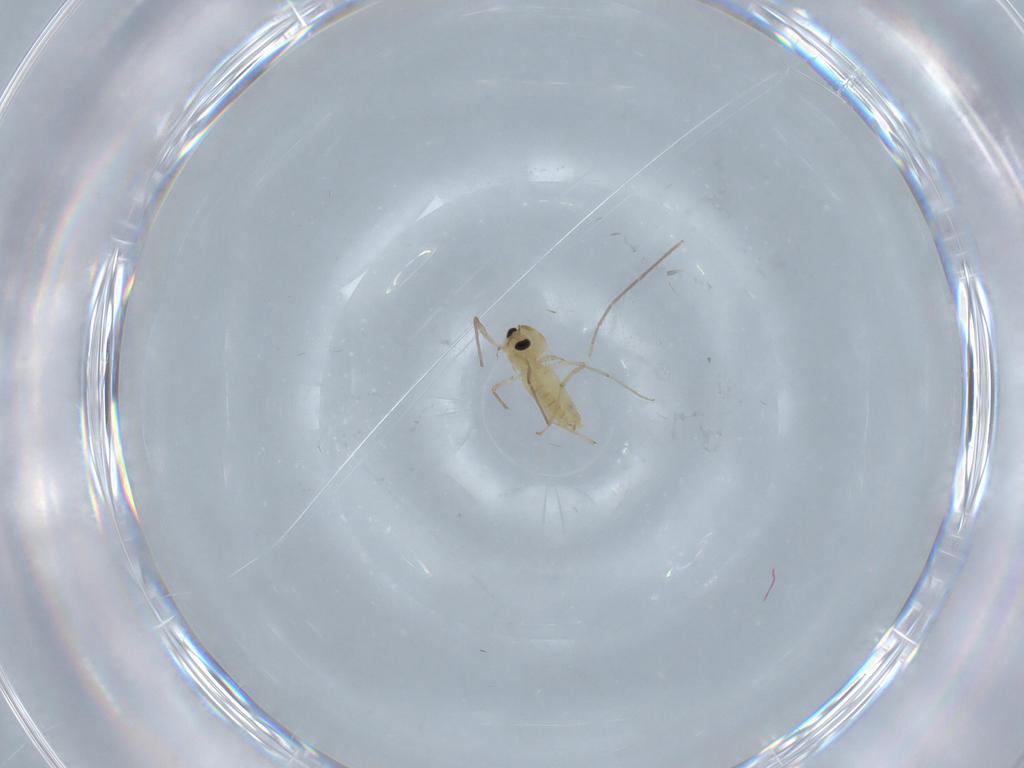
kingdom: Animalia
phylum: Arthropoda
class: Insecta
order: Diptera
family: Chironomidae
